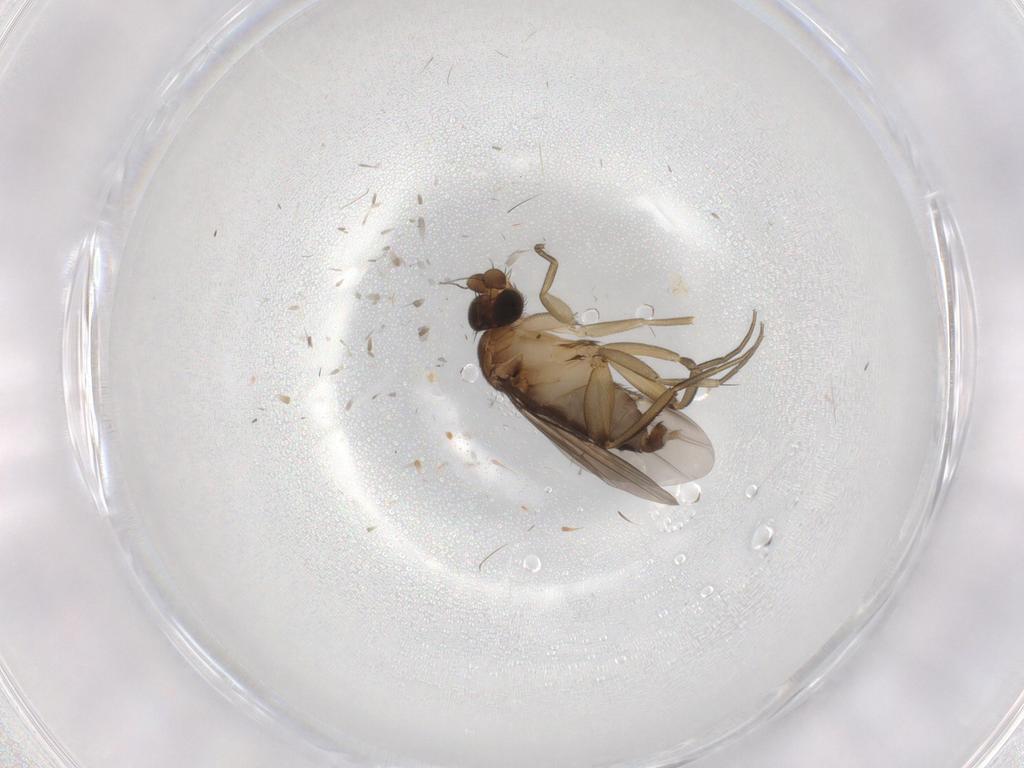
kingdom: Animalia
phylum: Arthropoda
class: Insecta
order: Diptera
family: Phoridae
